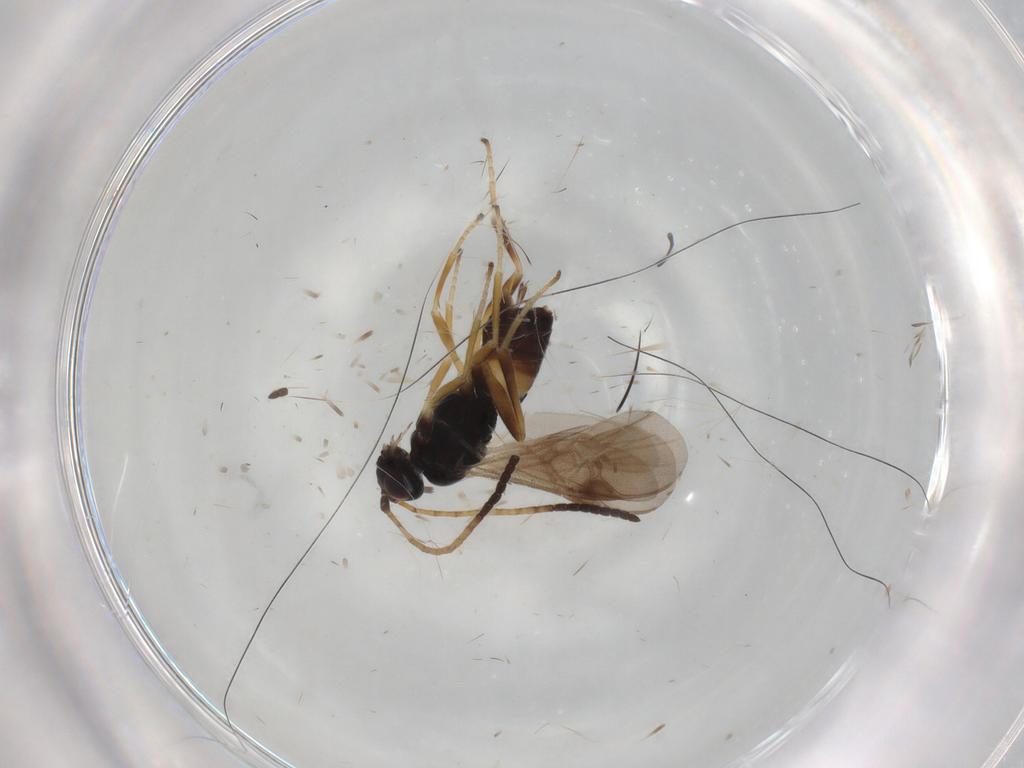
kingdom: Animalia
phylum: Arthropoda
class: Insecta
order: Hymenoptera
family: Braconidae
